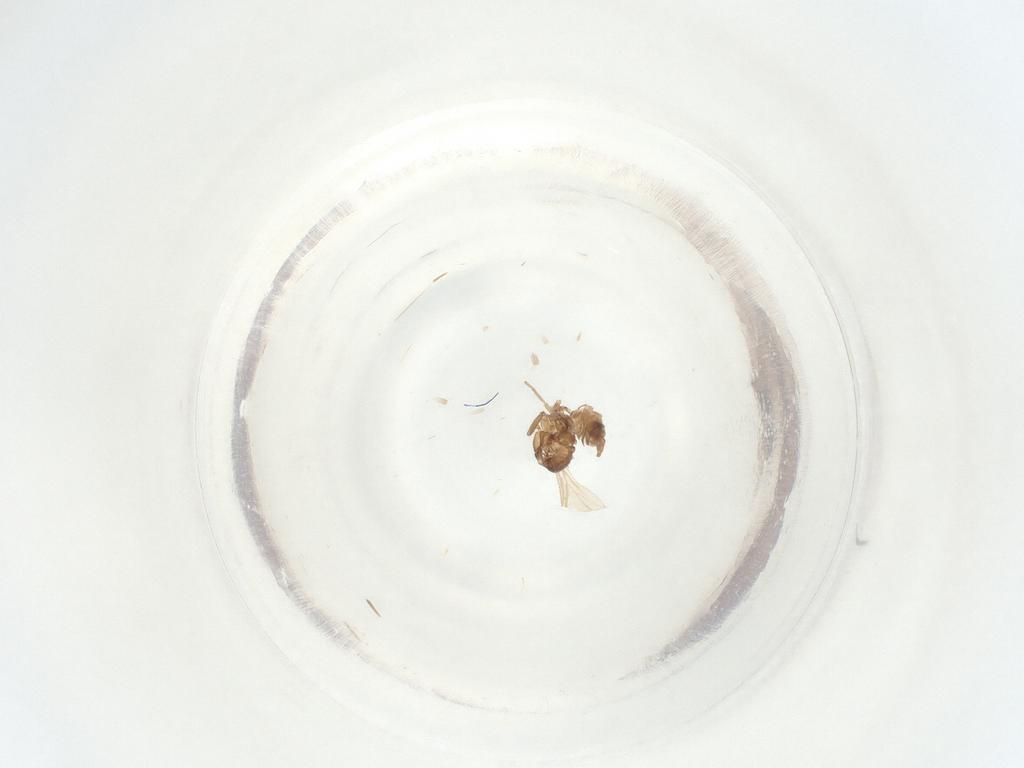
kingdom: Animalia
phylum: Arthropoda
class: Insecta
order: Diptera
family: Sciaridae
